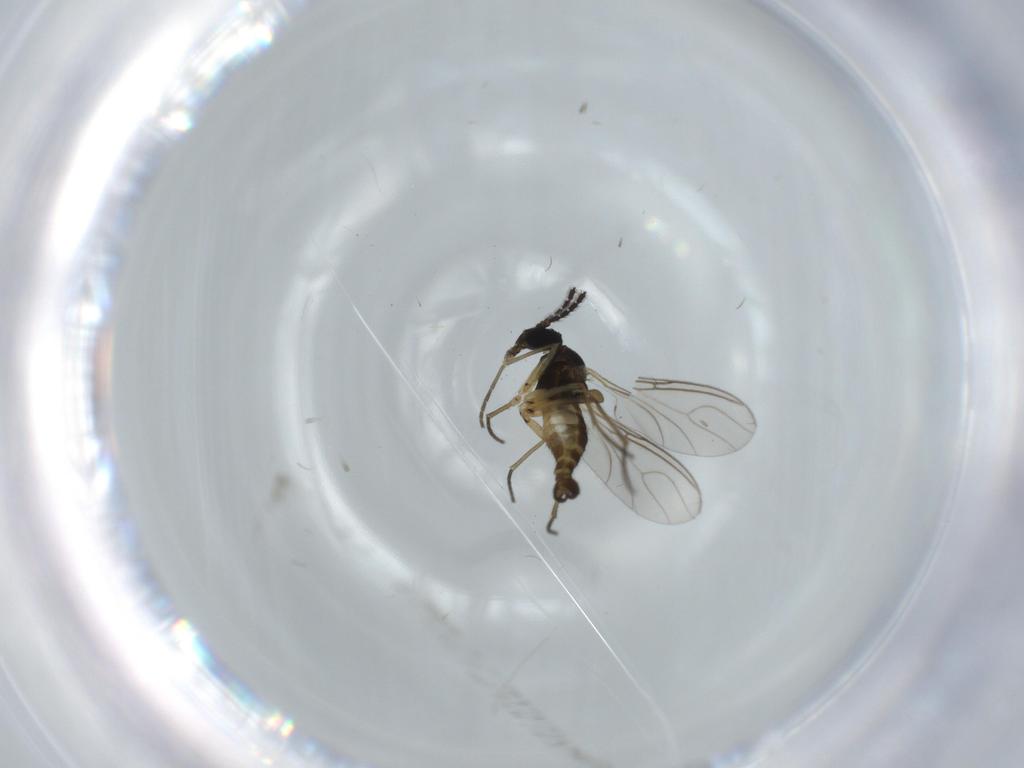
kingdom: Animalia
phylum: Arthropoda
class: Insecta
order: Diptera
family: Sciaridae
